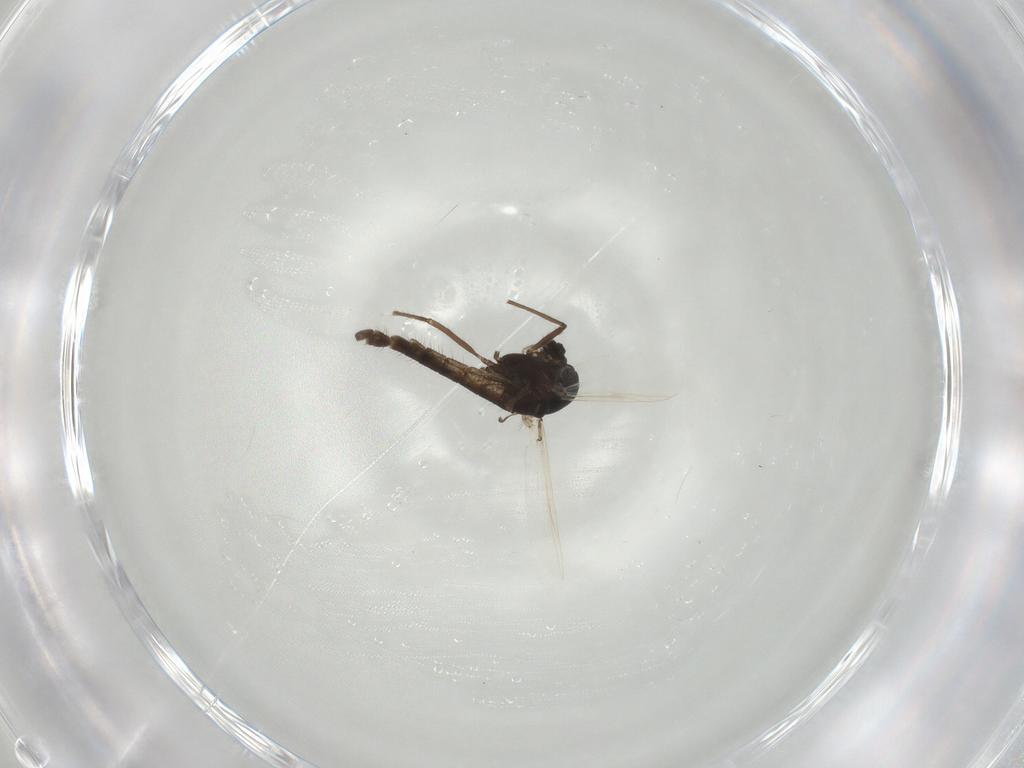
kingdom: Animalia
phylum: Arthropoda
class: Insecta
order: Diptera
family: Chironomidae
